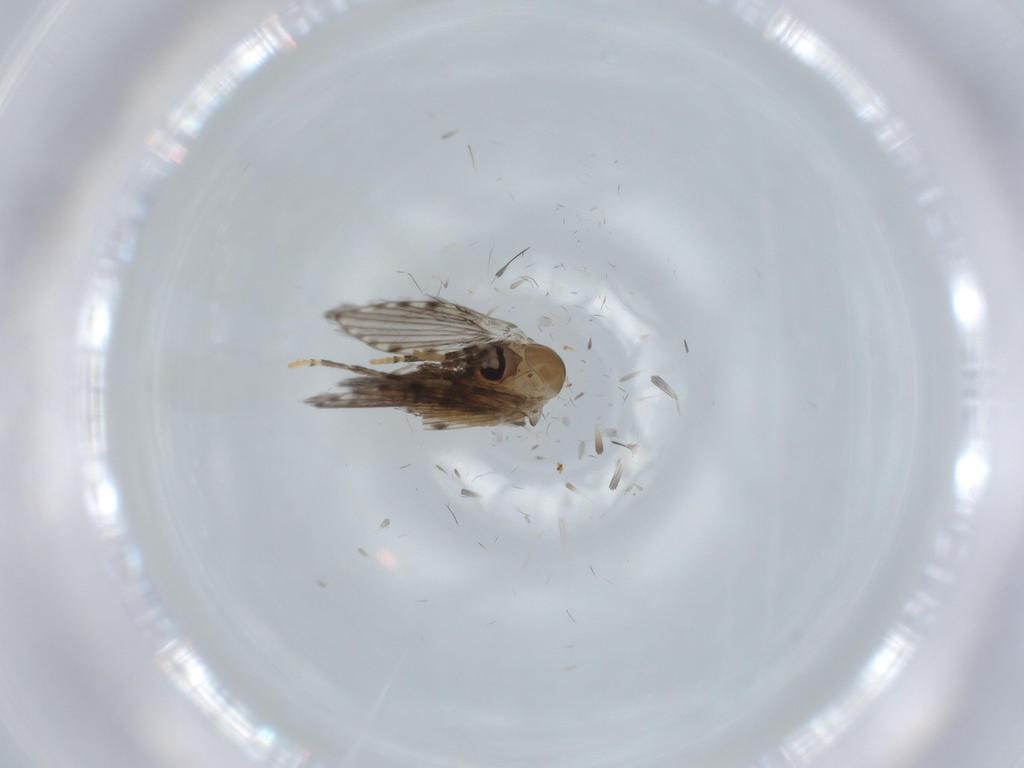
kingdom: Animalia
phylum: Arthropoda
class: Insecta
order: Diptera
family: Psychodidae
